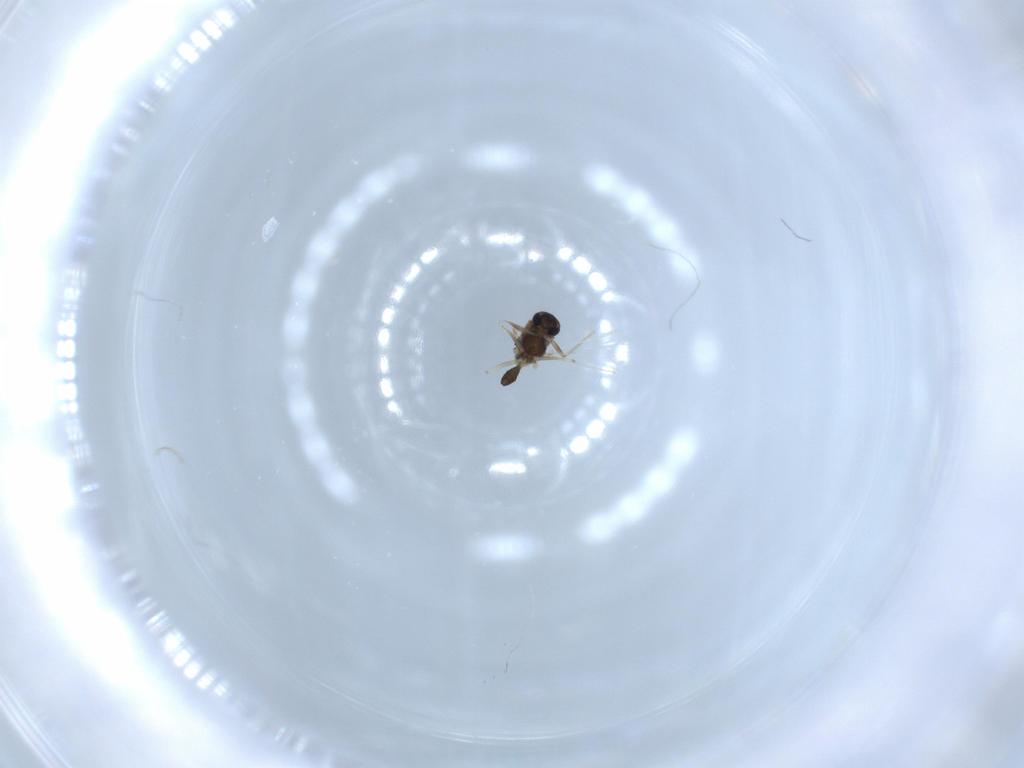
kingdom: Animalia
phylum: Arthropoda
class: Insecta
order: Diptera
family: Chironomidae
